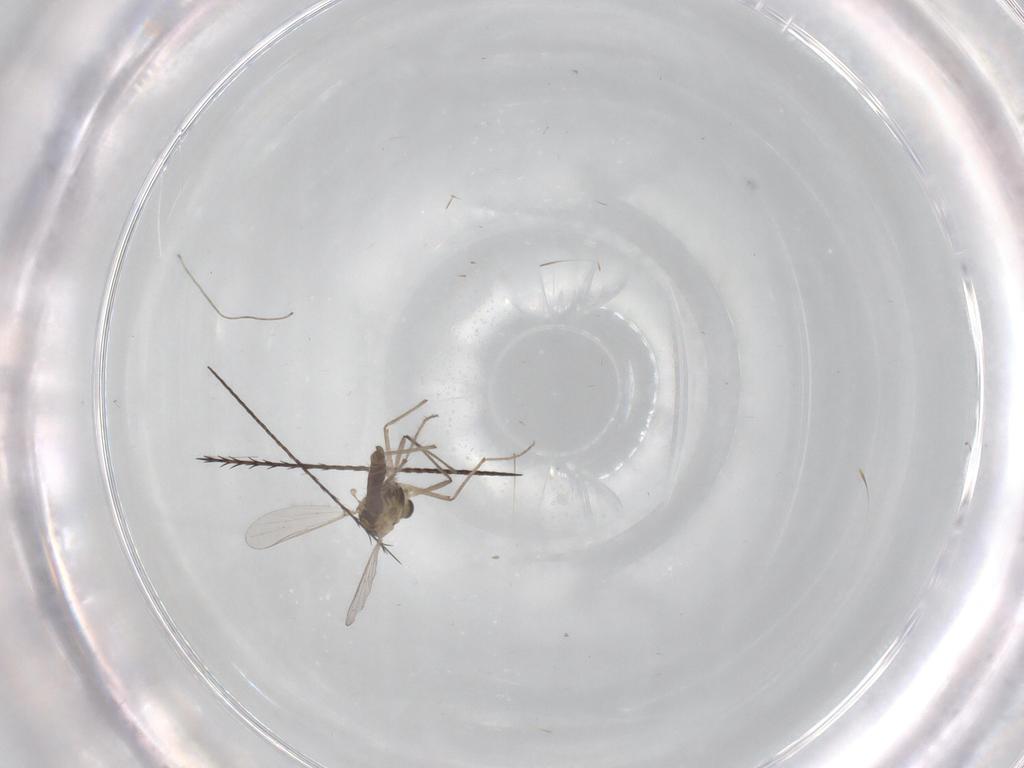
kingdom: Animalia
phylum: Arthropoda
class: Insecta
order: Diptera
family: Chironomidae
